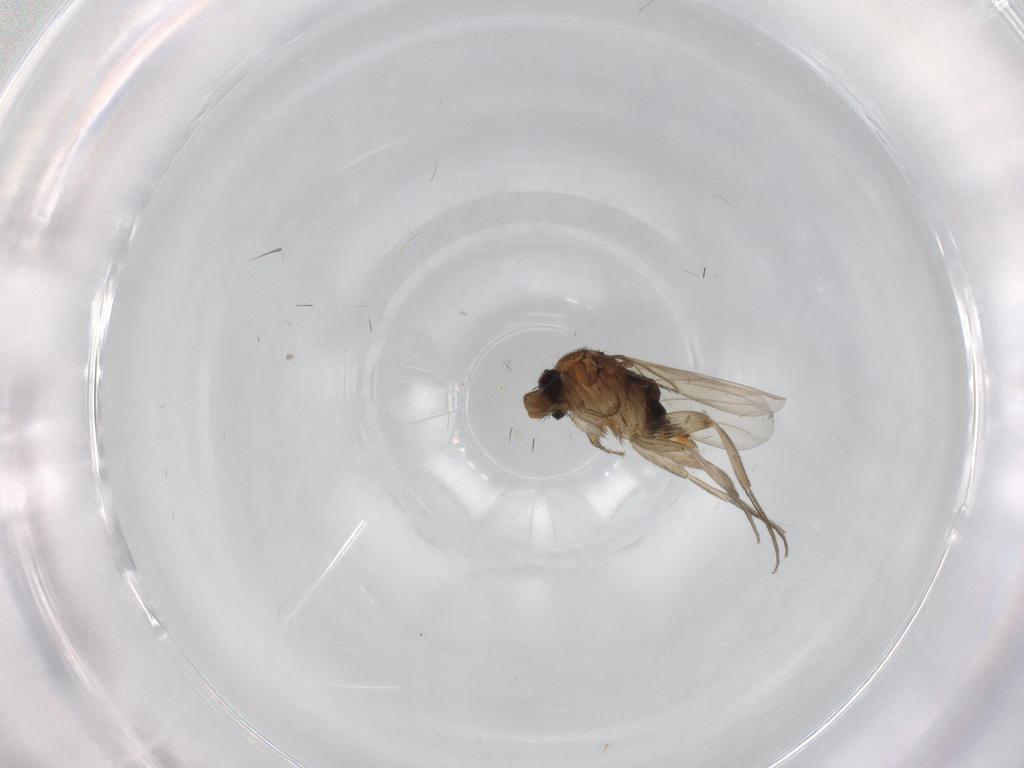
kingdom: Animalia
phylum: Arthropoda
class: Insecta
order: Diptera
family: Phoridae
